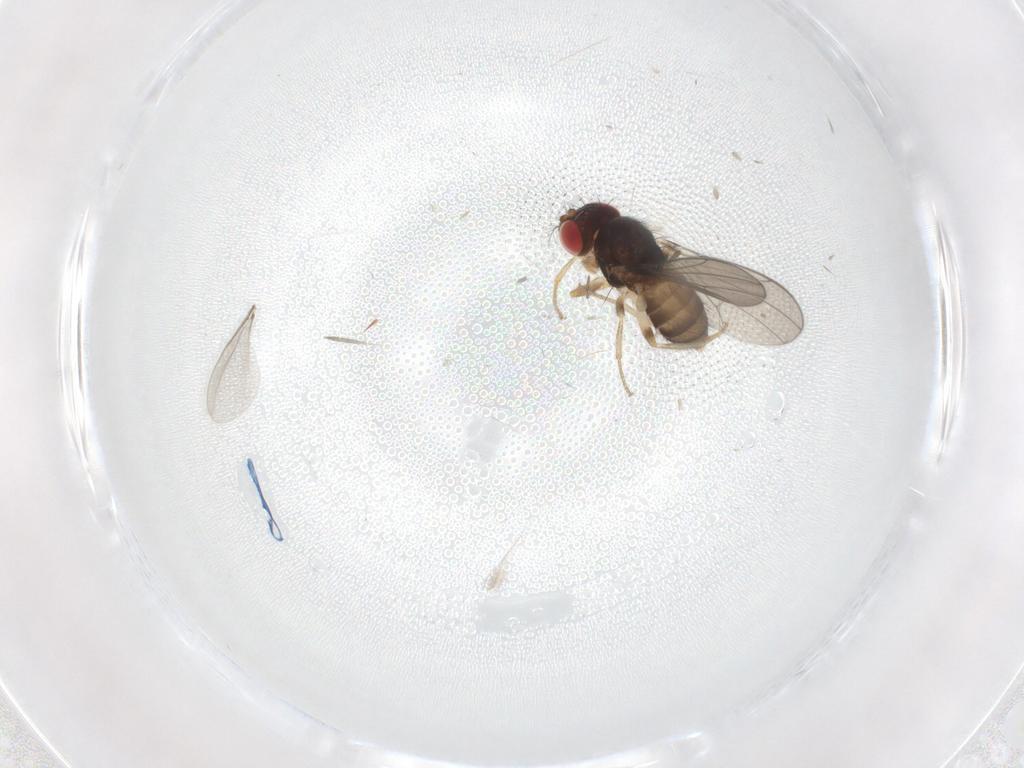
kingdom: Animalia
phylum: Arthropoda
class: Insecta
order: Diptera
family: Drosophilidae
